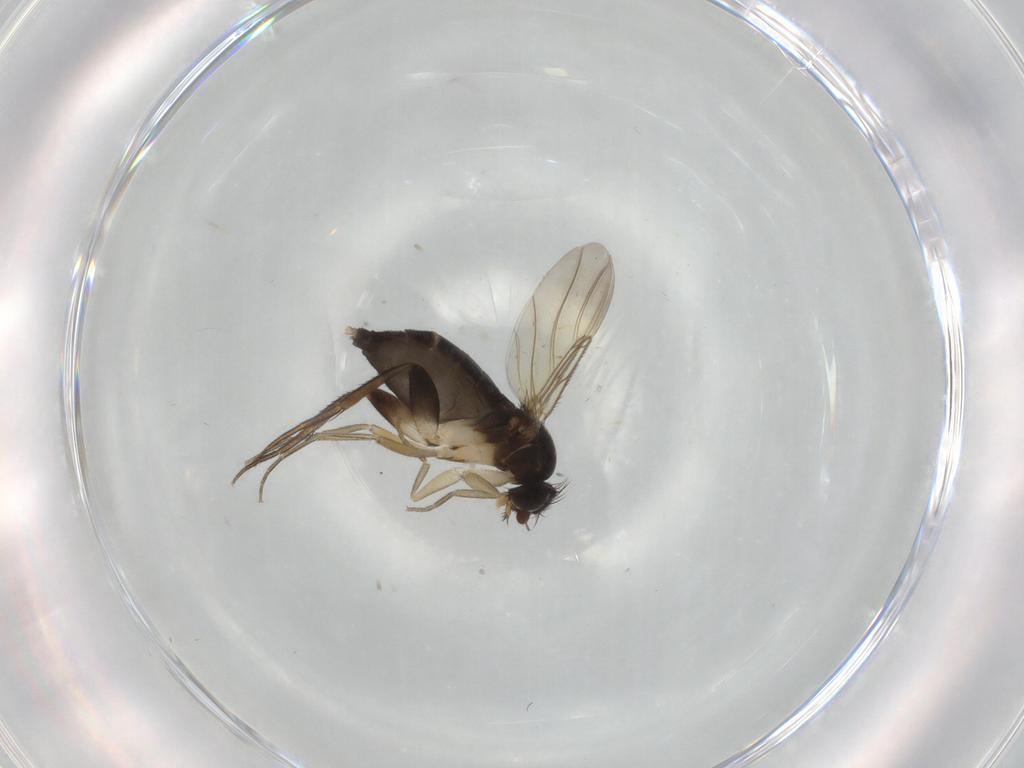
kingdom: Animalia
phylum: Arthropoda
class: Insecta
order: Diptera
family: Phoridae
